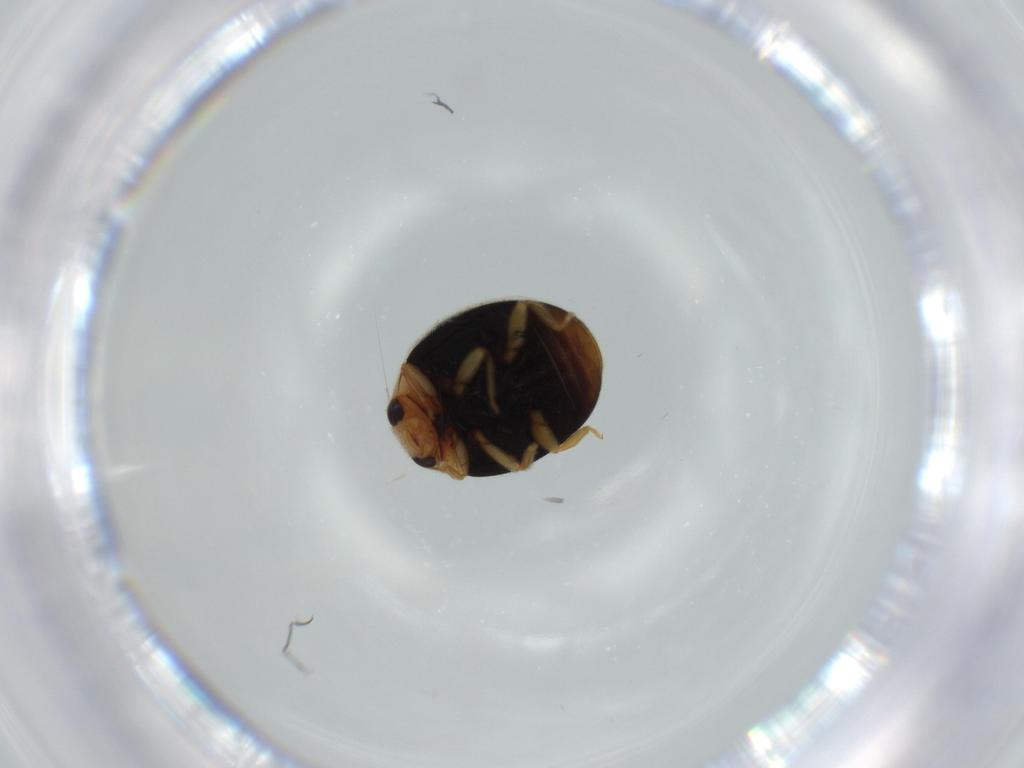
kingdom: Animalia
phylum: Arthropoda
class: Insecta
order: Coleoptera
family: Coccinellidae
